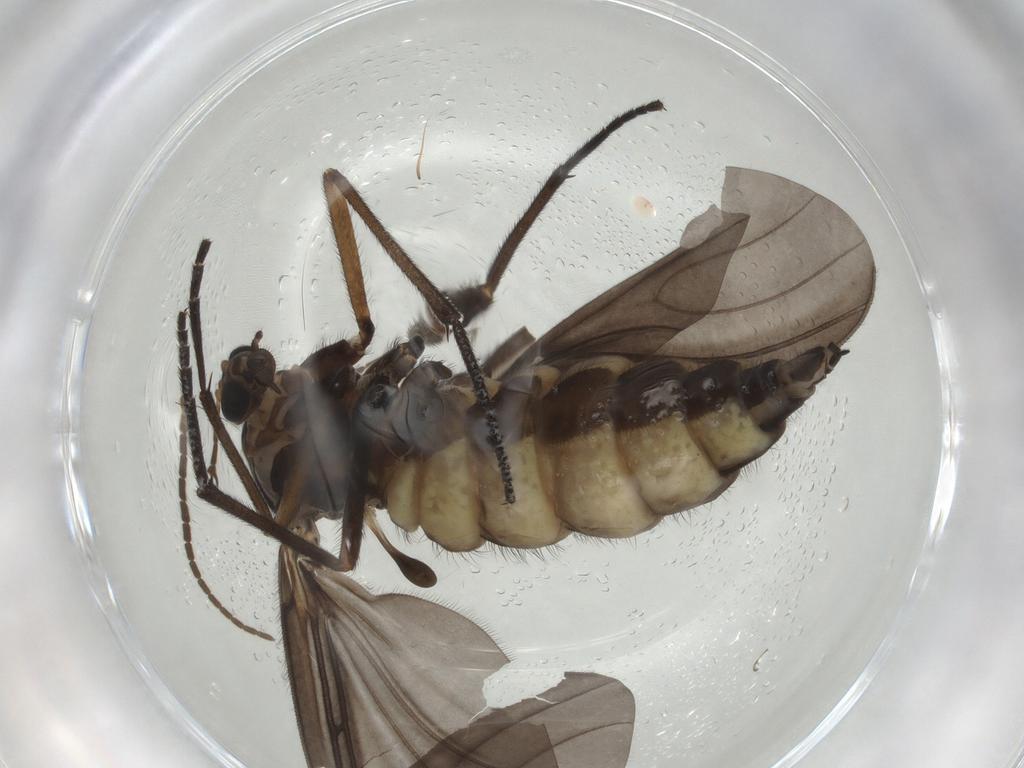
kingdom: Animalia
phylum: Arthropoda
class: Insecta
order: Diptera
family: Sciaridae
